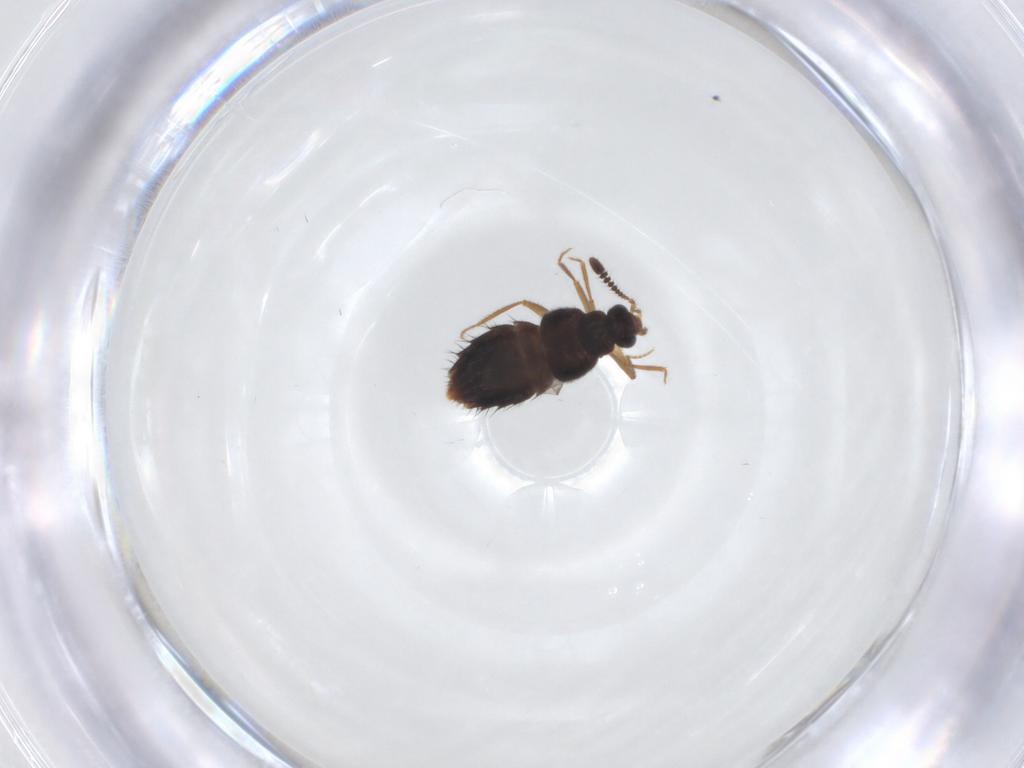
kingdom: Animalia
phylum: Arthropoda
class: Insecta
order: Coleoptera
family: Staphylinidae
